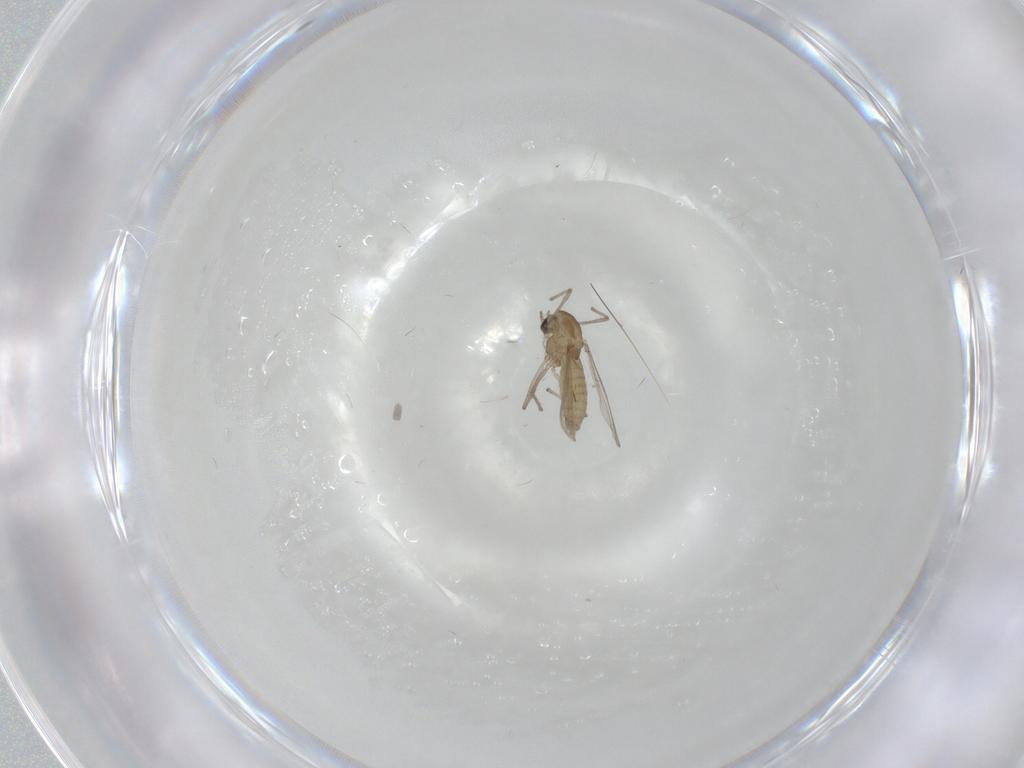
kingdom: Animalia
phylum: Arthropoda
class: Insecta
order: Diptera
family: Chironomidae
